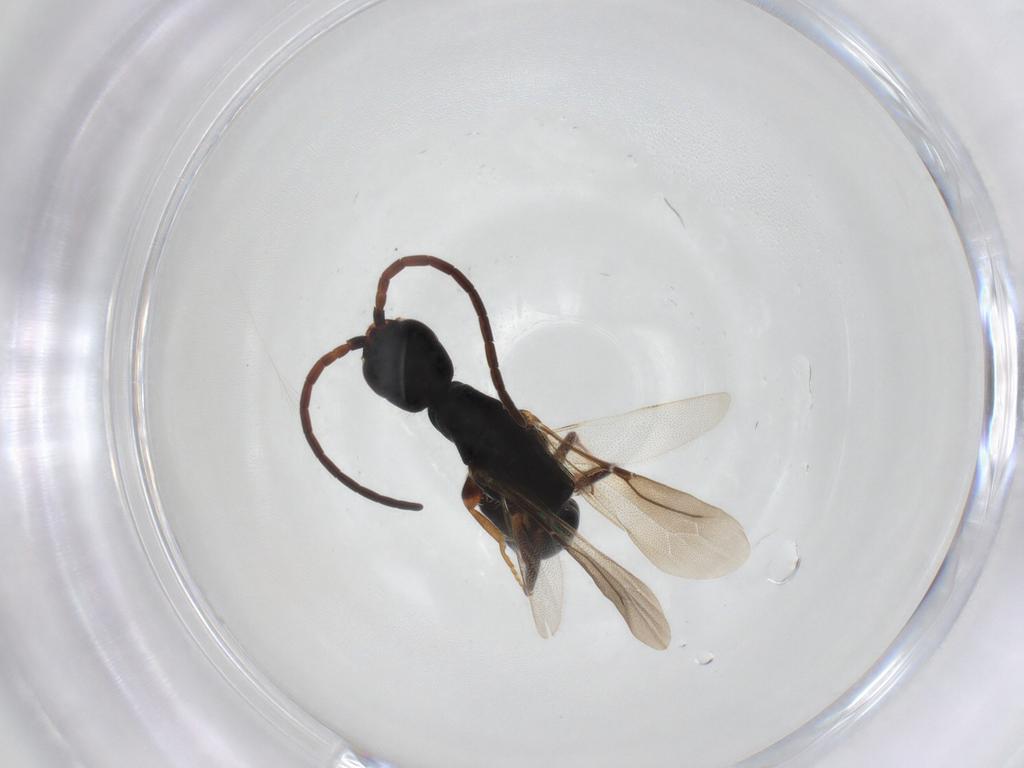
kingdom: Animalia
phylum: Arthropoda
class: Insecta
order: Hymenoptera
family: Bethylidae
